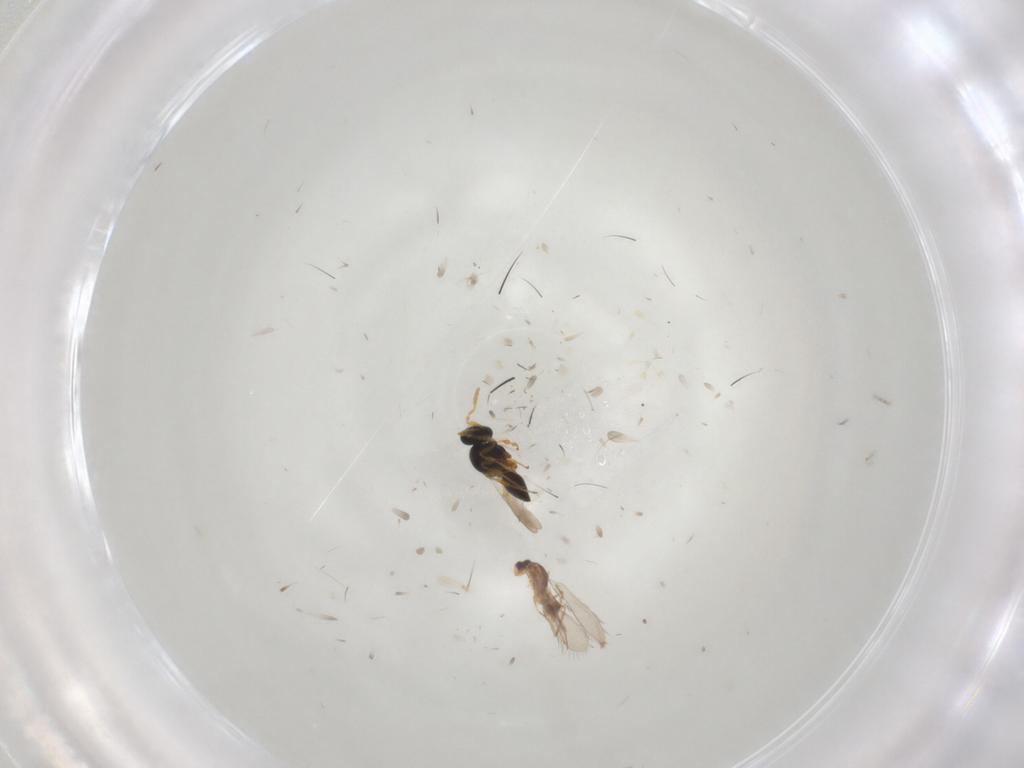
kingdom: Animalia
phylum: Arthropoda
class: Insecta
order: Hymenoptera
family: Mymaridae
